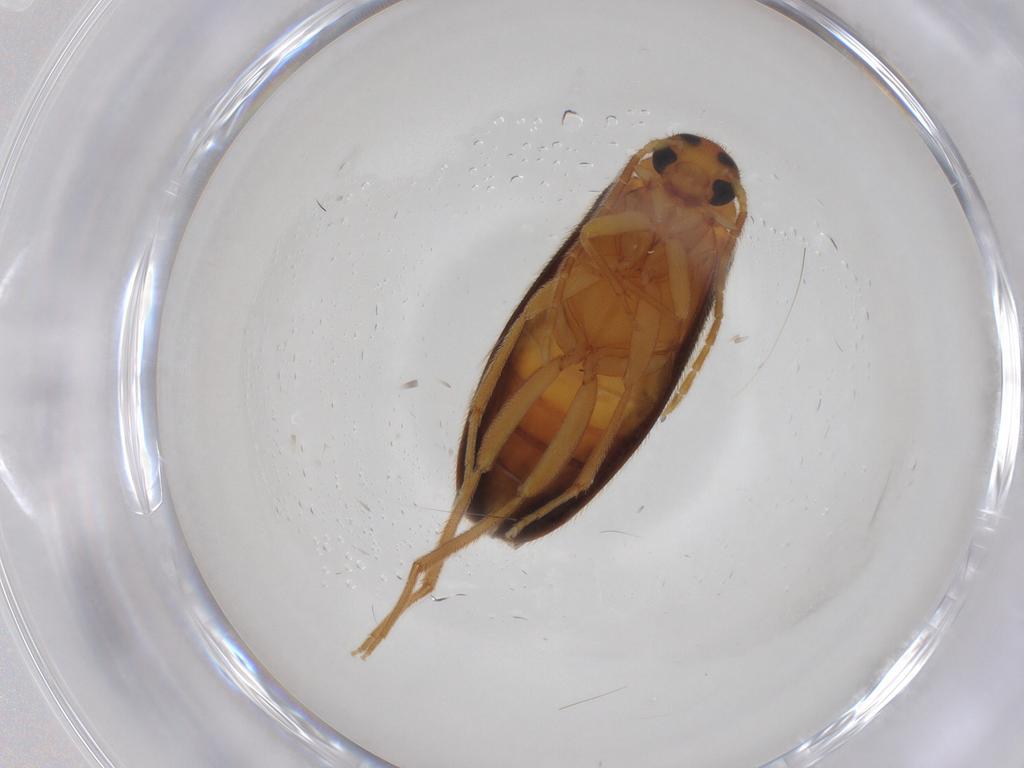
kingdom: Animalia
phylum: Arthropoda
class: Insecta
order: Coleoptera
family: Scraptiidae
